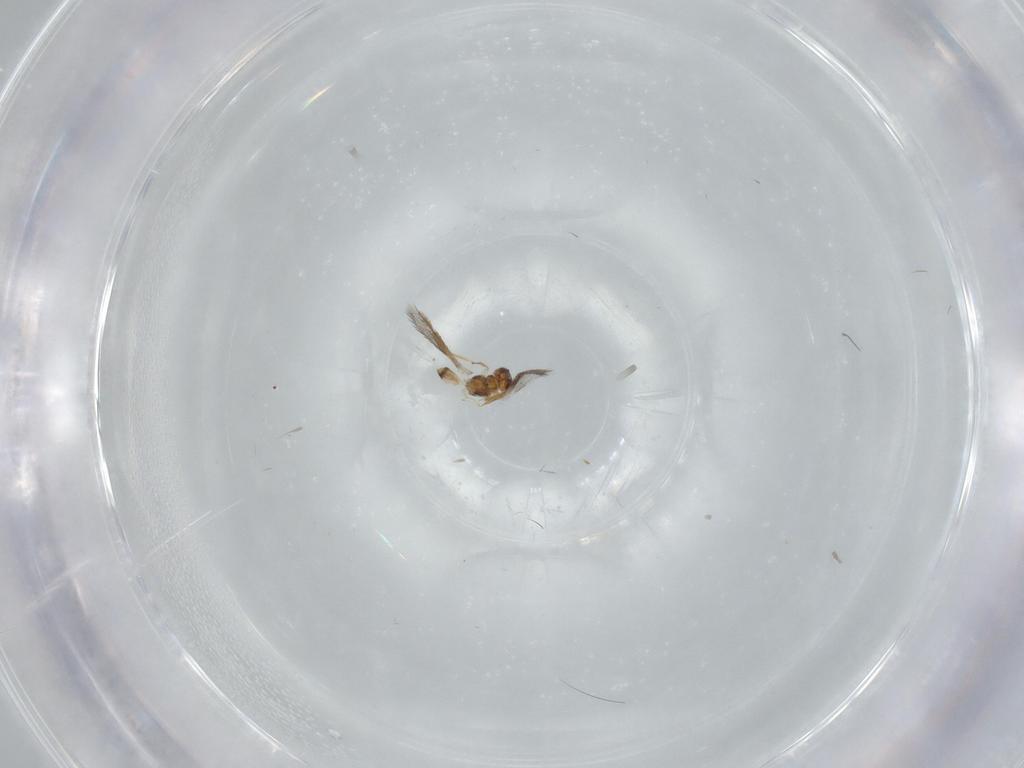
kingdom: Animalia
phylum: Arthropoda
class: Insecta
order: Hymenoptera
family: Mymaridae
